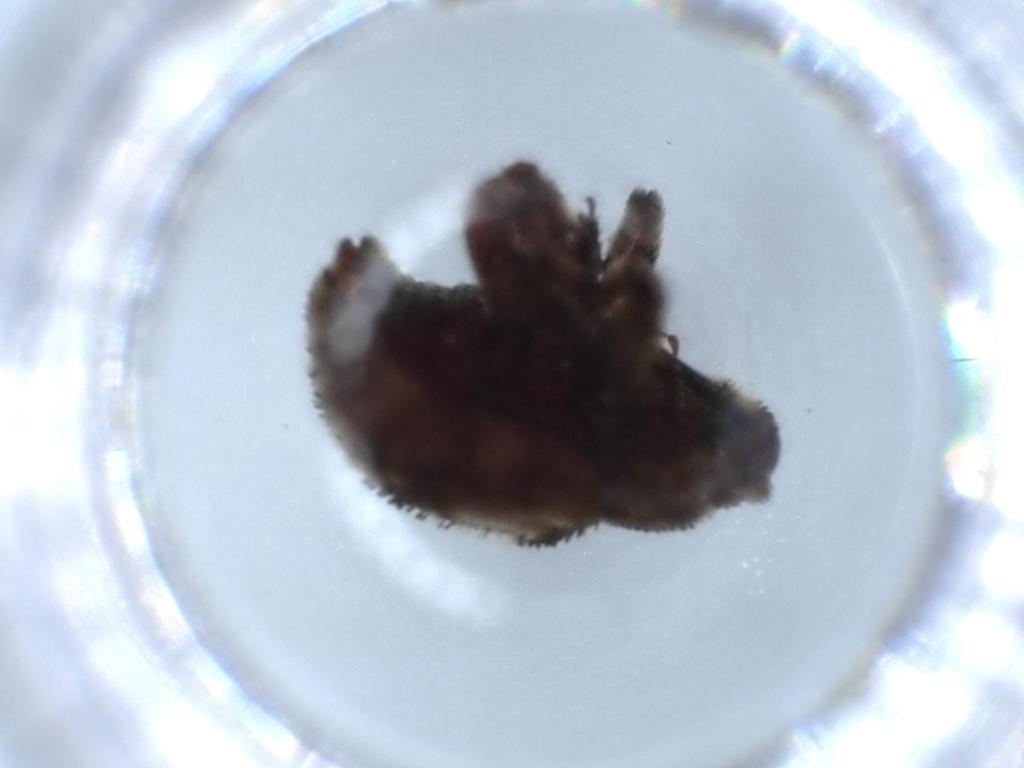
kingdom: Animalia
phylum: Arthropoda
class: Insecta
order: Coleoptera
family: Curculionidae
